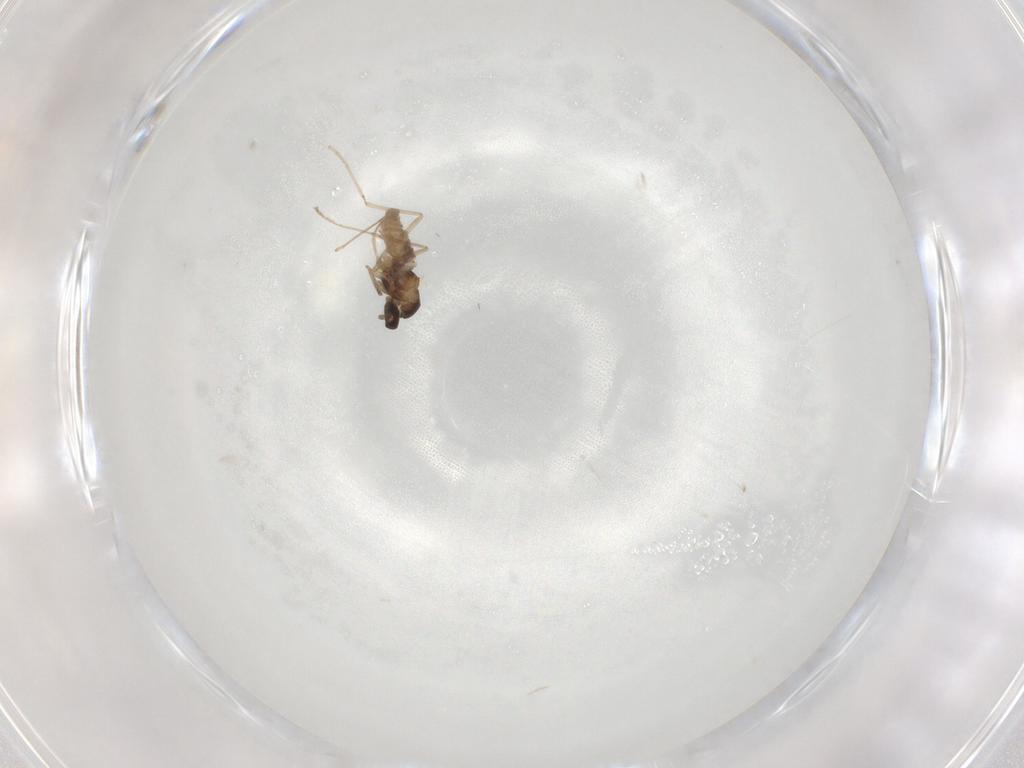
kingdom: Animalia
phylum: Arthropoda
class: Insecta
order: Diptera
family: Cecidomyiidae
